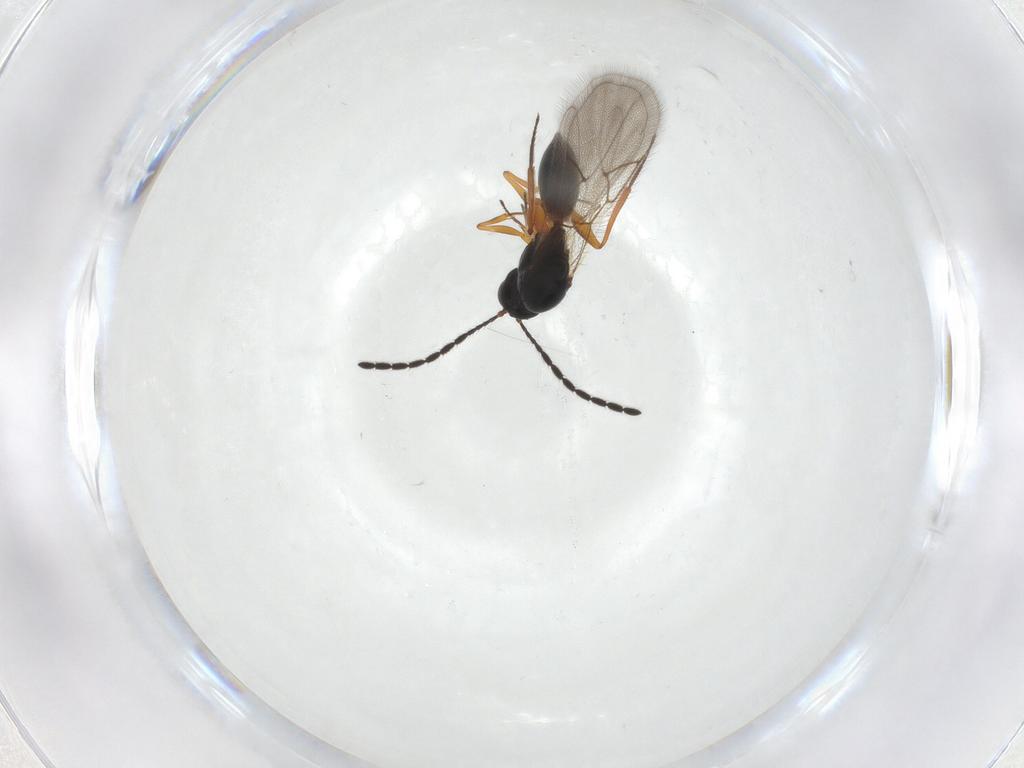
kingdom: Animalia
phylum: Arthropoda
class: Insecta
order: Hymenoptera
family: Figitidae
